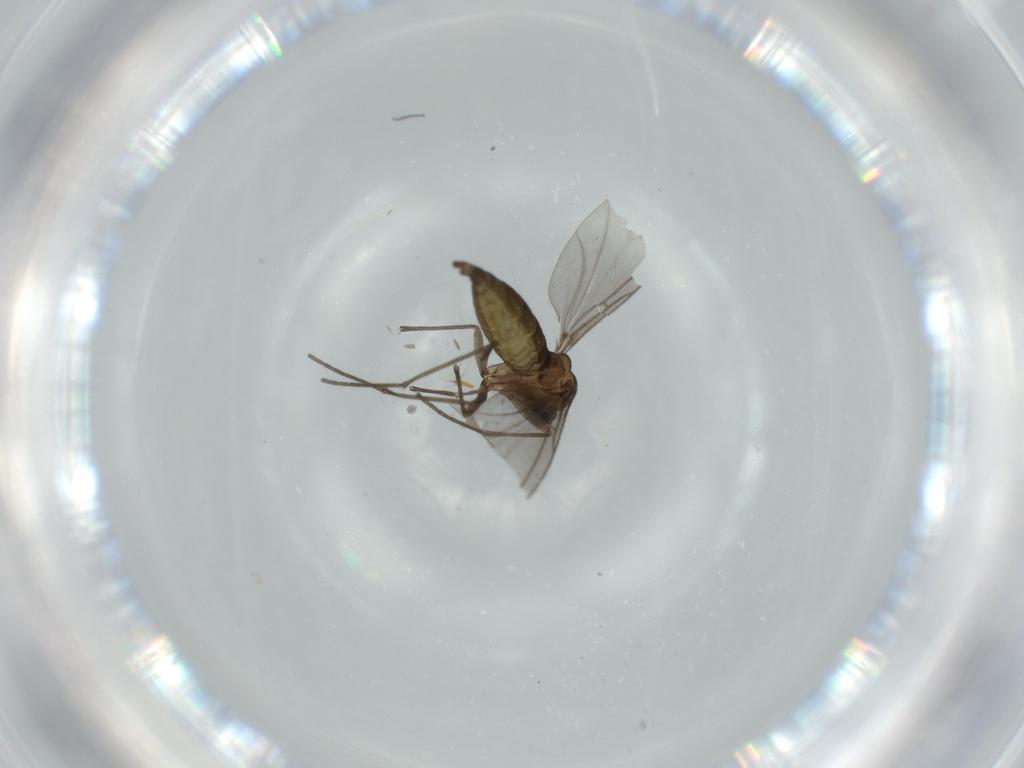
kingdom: Animalia
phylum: Arthropoda
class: Insecta
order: Diptera
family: Sciaridae
